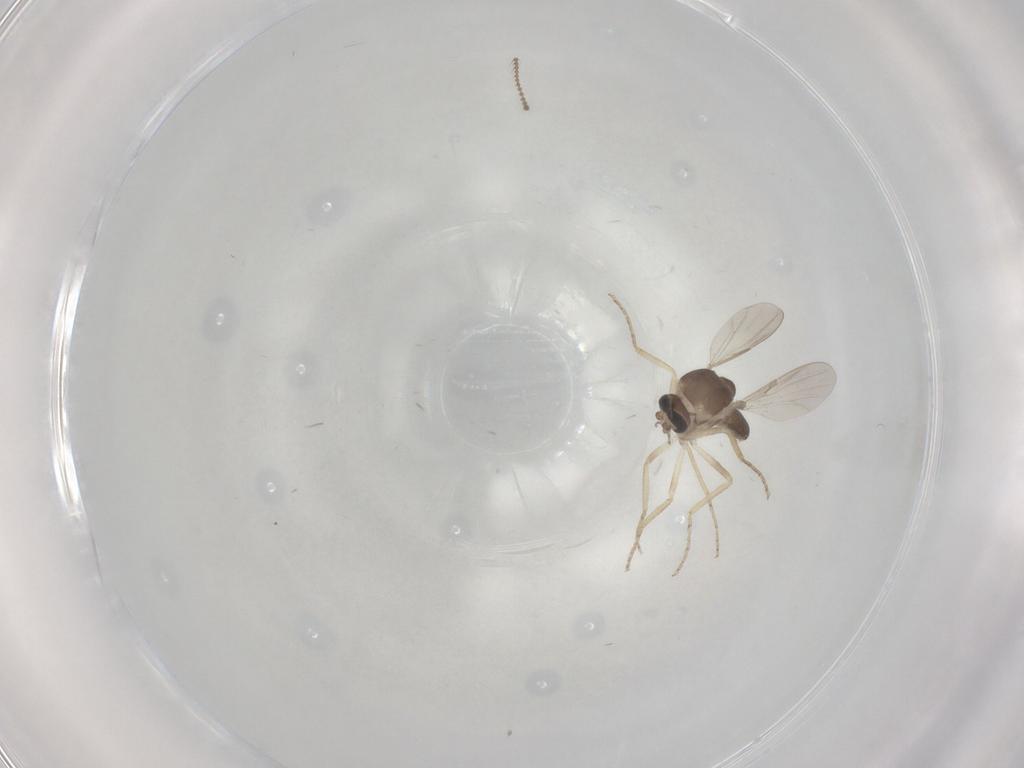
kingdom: Animalia
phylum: Arthropoda
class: Insecta
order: Diptera
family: Ceratopogonidae
